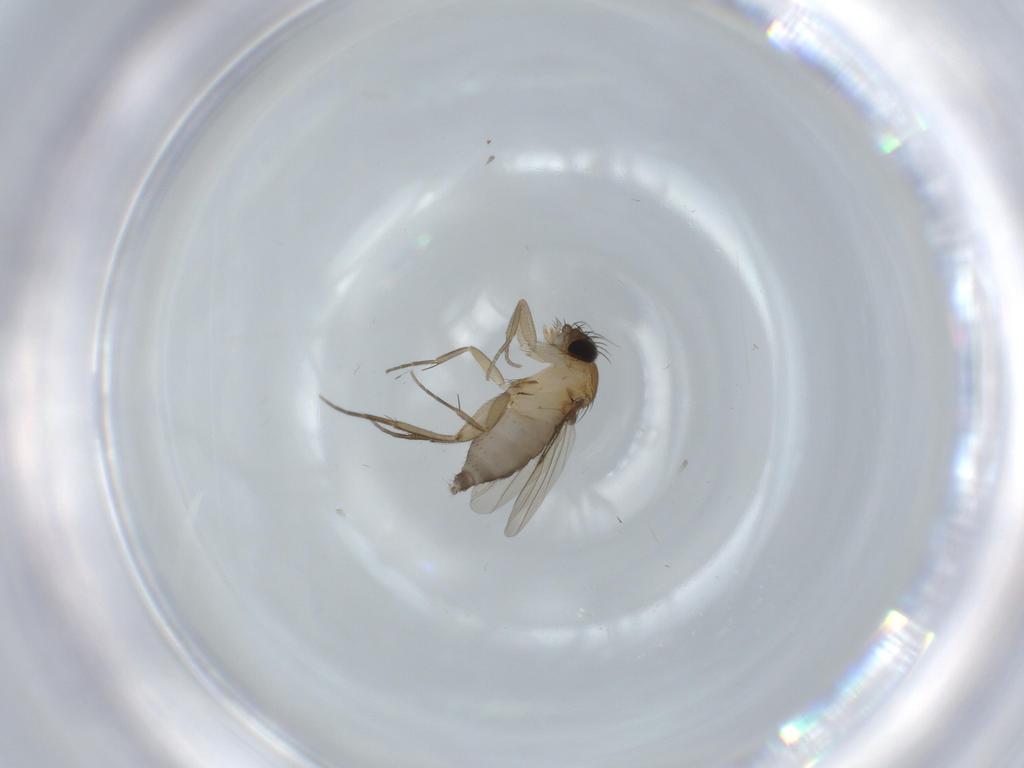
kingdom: Animalia
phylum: Arthropoda
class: Insecta
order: Diptera
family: Phoridae
